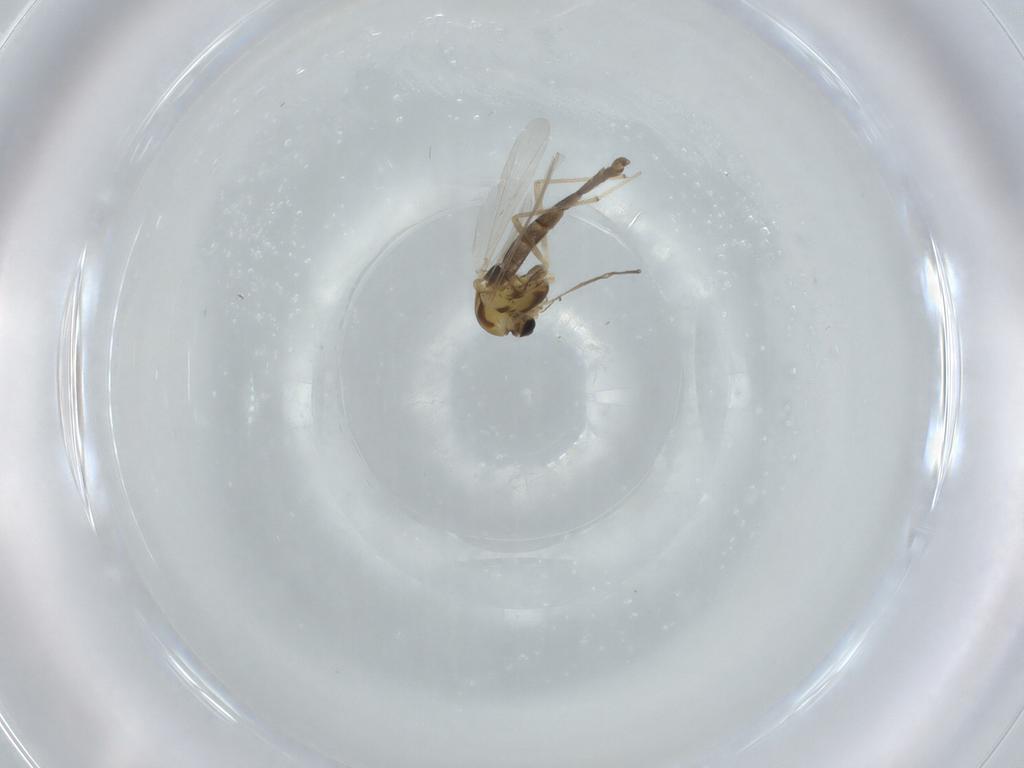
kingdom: Animalia
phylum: Arthropoda
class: Insecta
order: Diptera
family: Chironomidae
